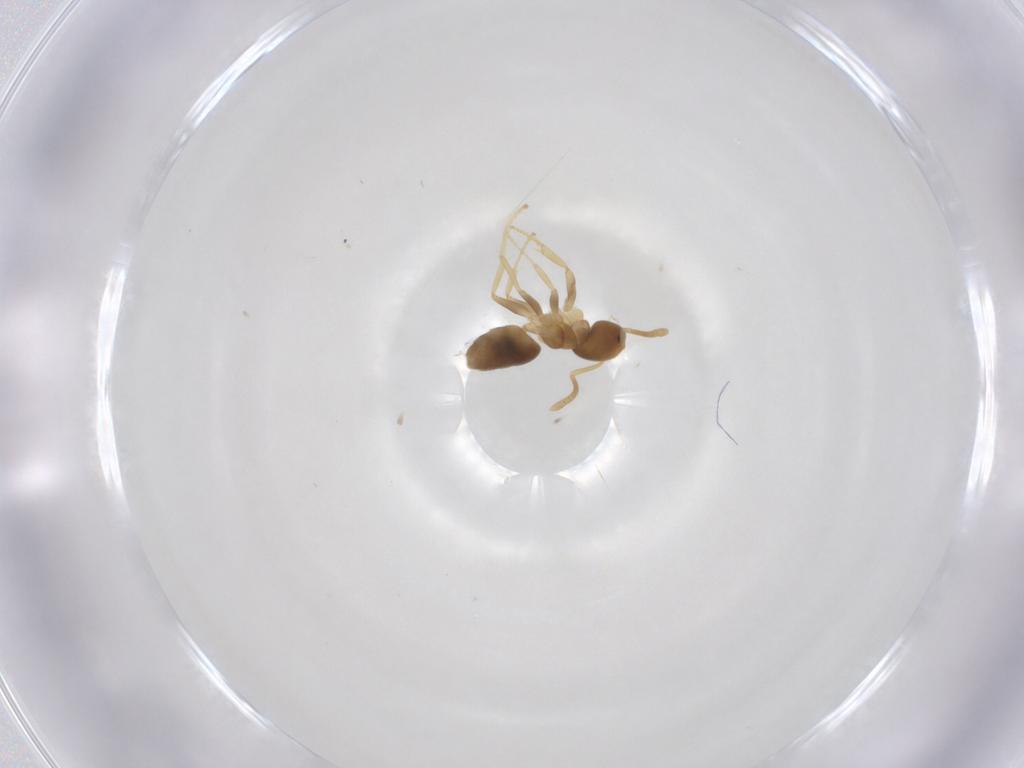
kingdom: Animalia
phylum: Arthropoda
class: Insecta
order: Hymenoptera
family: Formicidae
